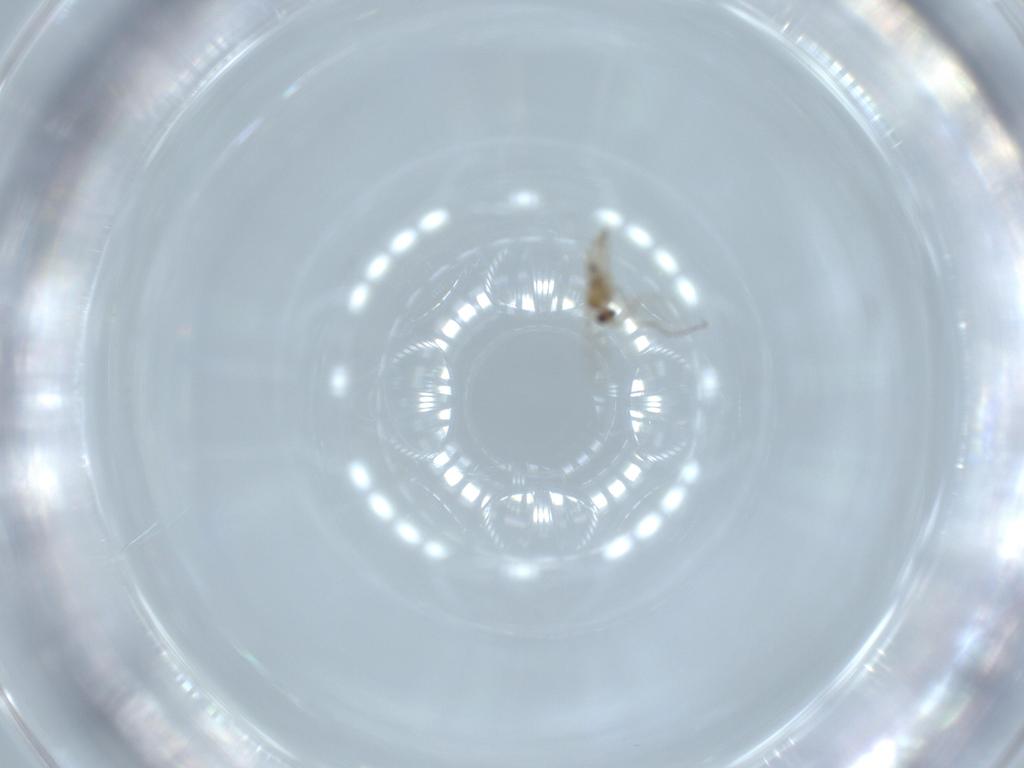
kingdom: Animalia
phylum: Arthropoda
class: Insecta
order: Diptera
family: Cecidomyiidae
